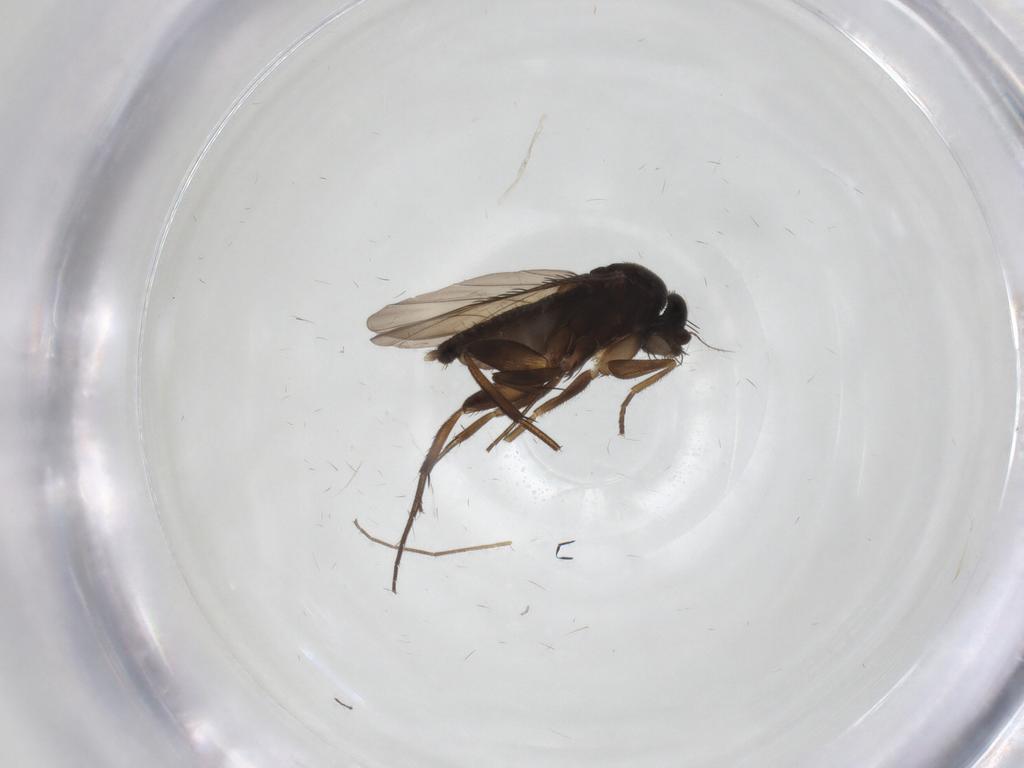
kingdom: Animalia
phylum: Arthropoda
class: Insecta
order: Diptera
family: Phoridae
